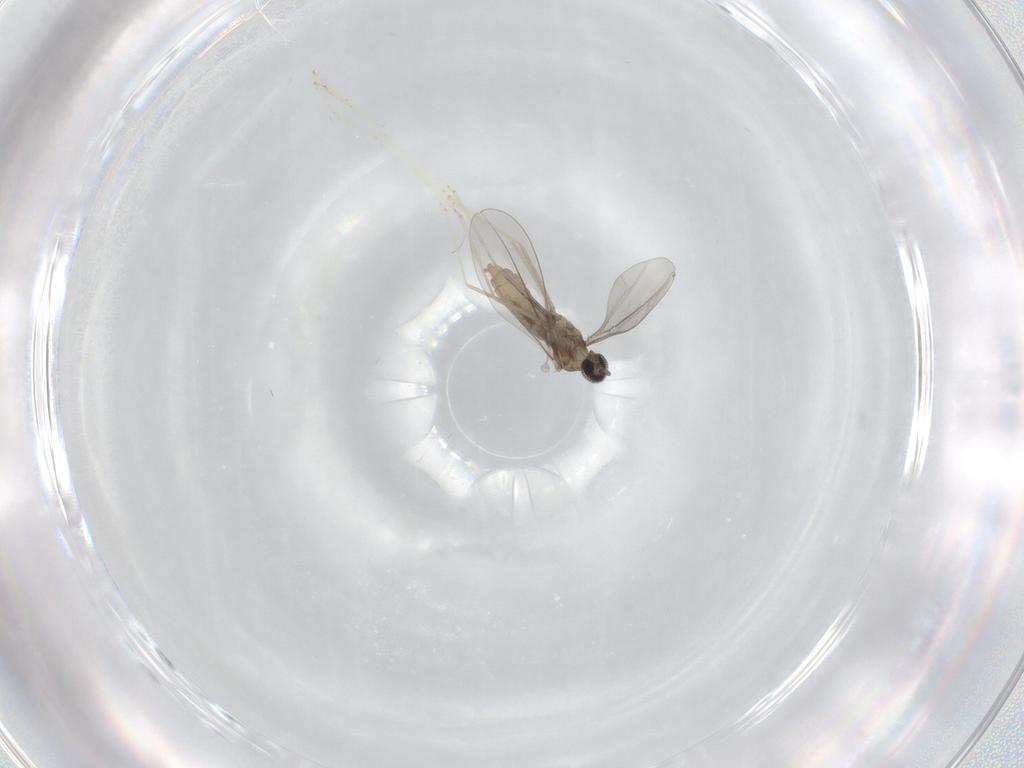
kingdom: Animalia
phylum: Arthropoda
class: Insecta
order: Diptera
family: Cecidomyiidae
